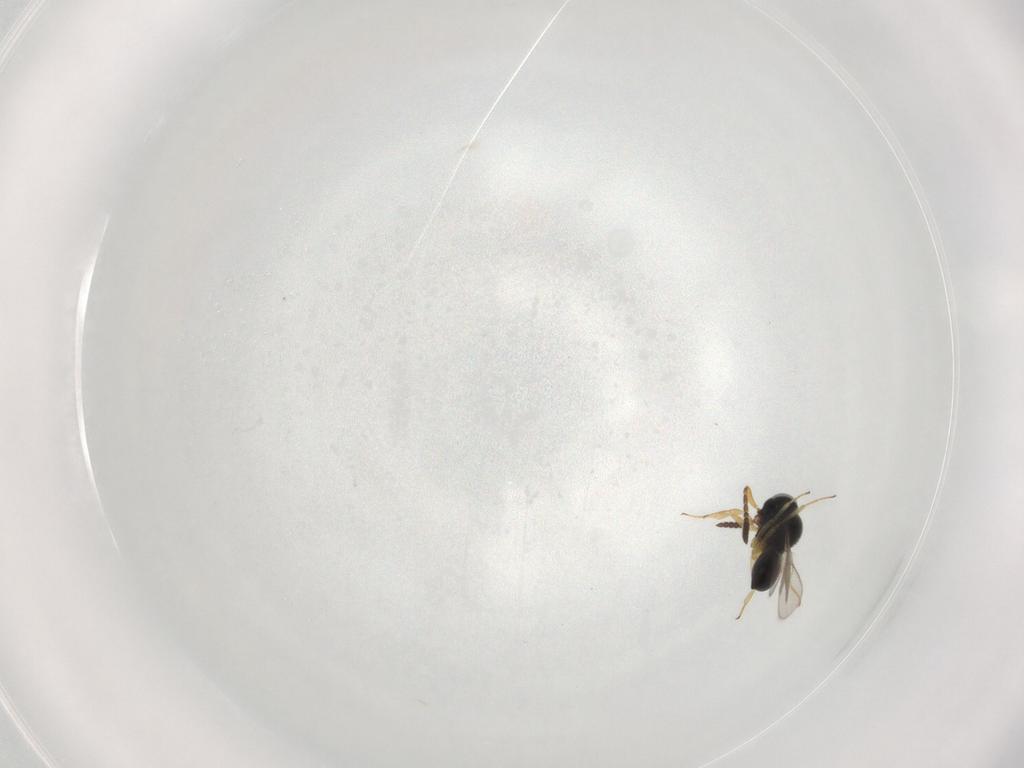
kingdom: Animalia
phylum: Arthropoda
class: Insecta
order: Hymenoptera
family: Scelionidae
